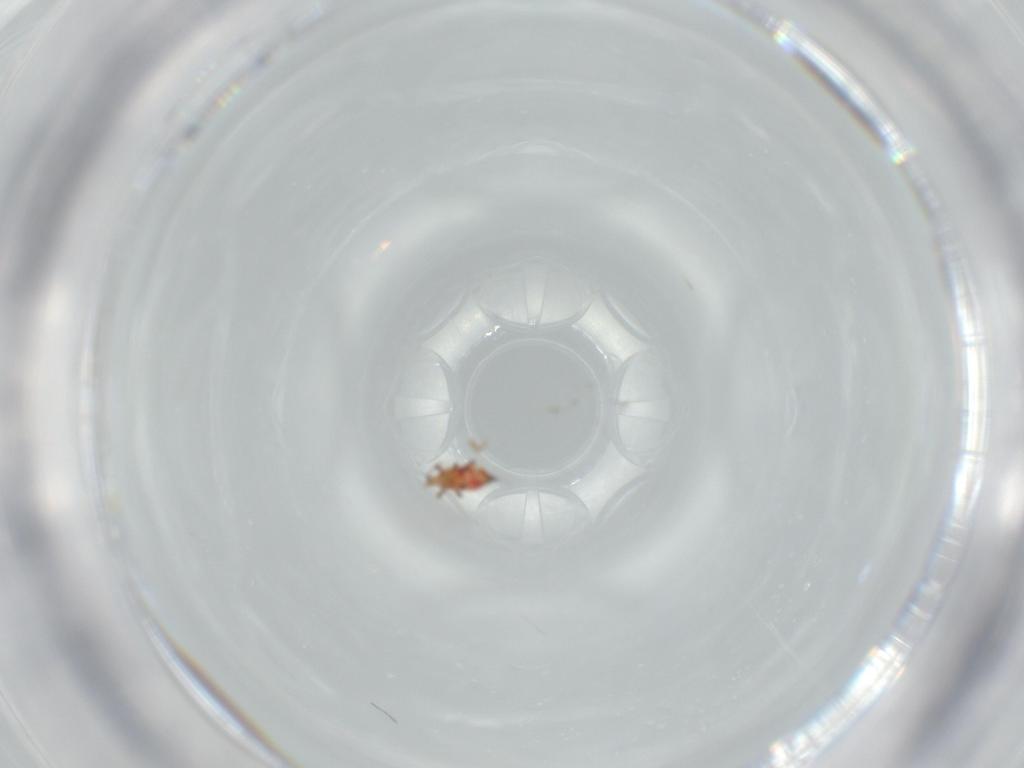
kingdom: Animalia
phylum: Arthropoda
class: Insecta
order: Thysanoptera
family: Phlaeothripidae
